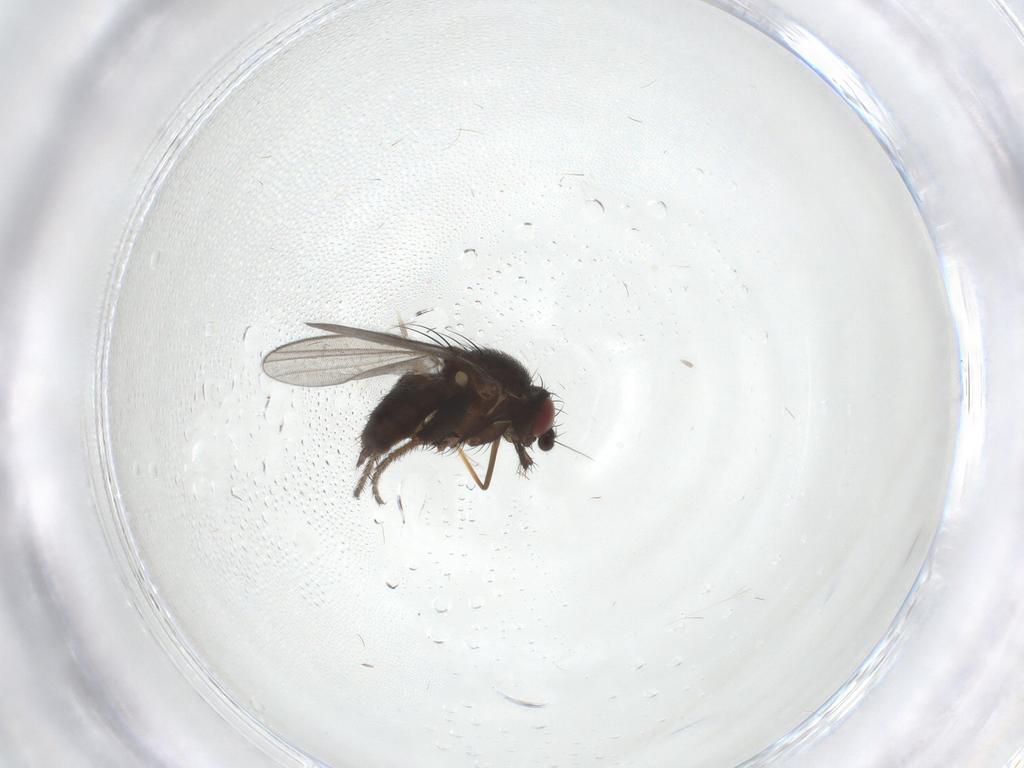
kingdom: Animalia
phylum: Arthropoda
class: Insecta
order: Diptera
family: Milichiidae
